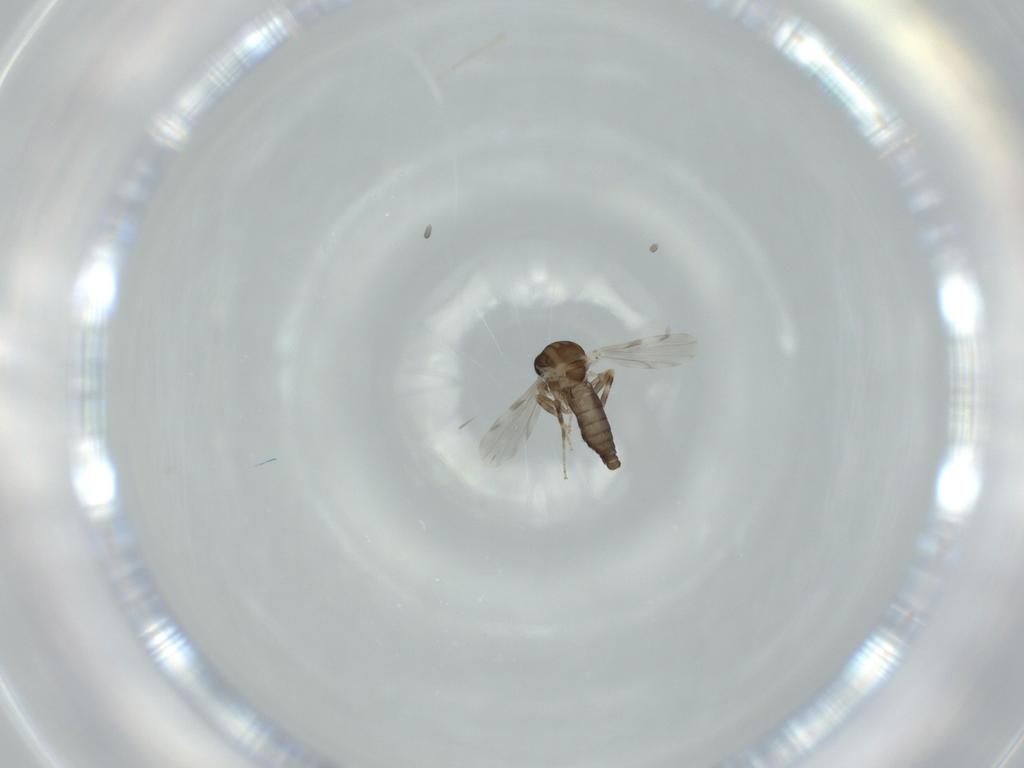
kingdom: Animalia
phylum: Arthropoda
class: Insecta
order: Diptera
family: Ceratopogonidae
